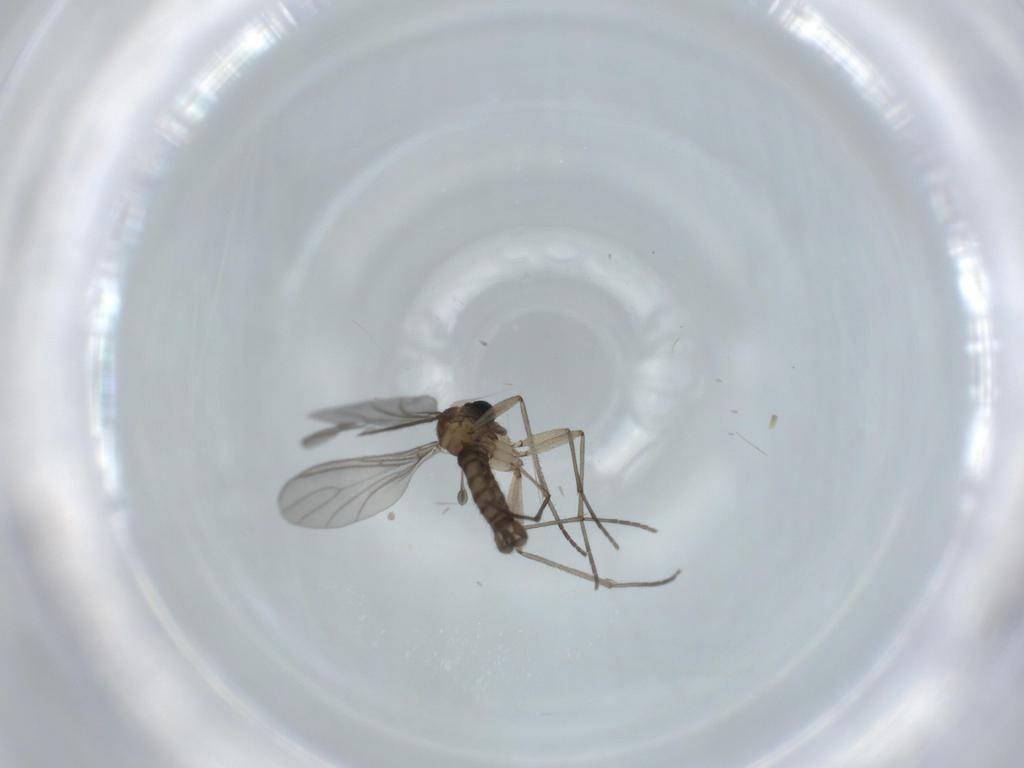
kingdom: Animalia
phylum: Arthropoda
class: Insecta
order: Diptera
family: Sciaridae
